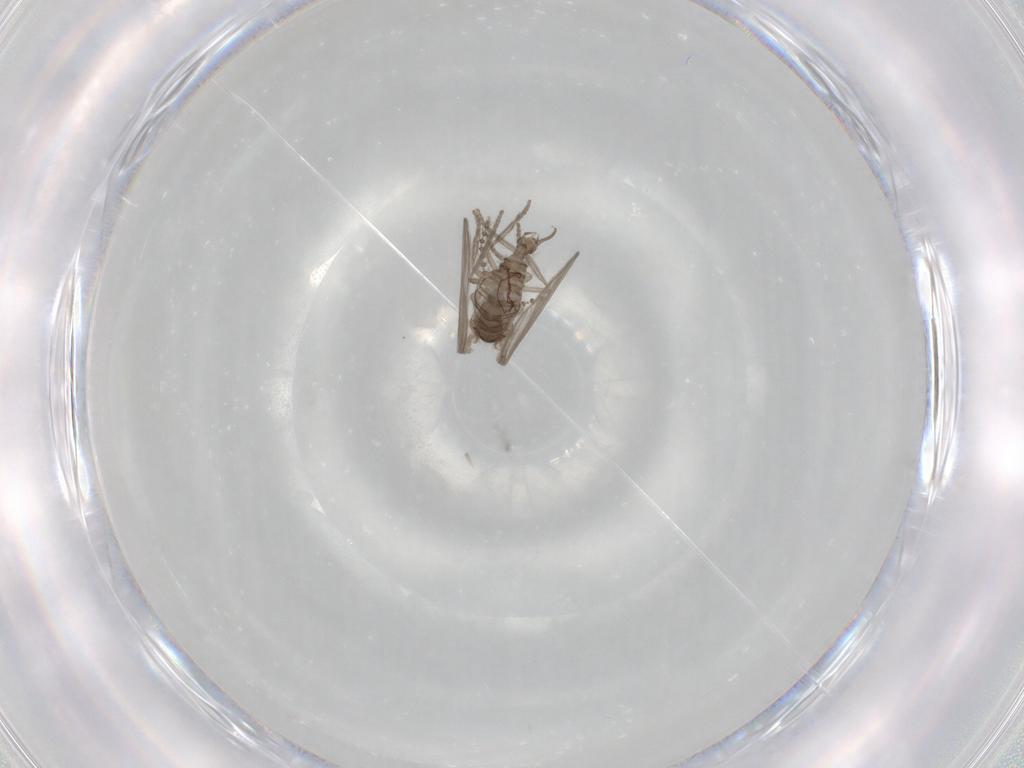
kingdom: Animalia
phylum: Arthropoda
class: Insecta
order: Diptera
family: Psychodidae
